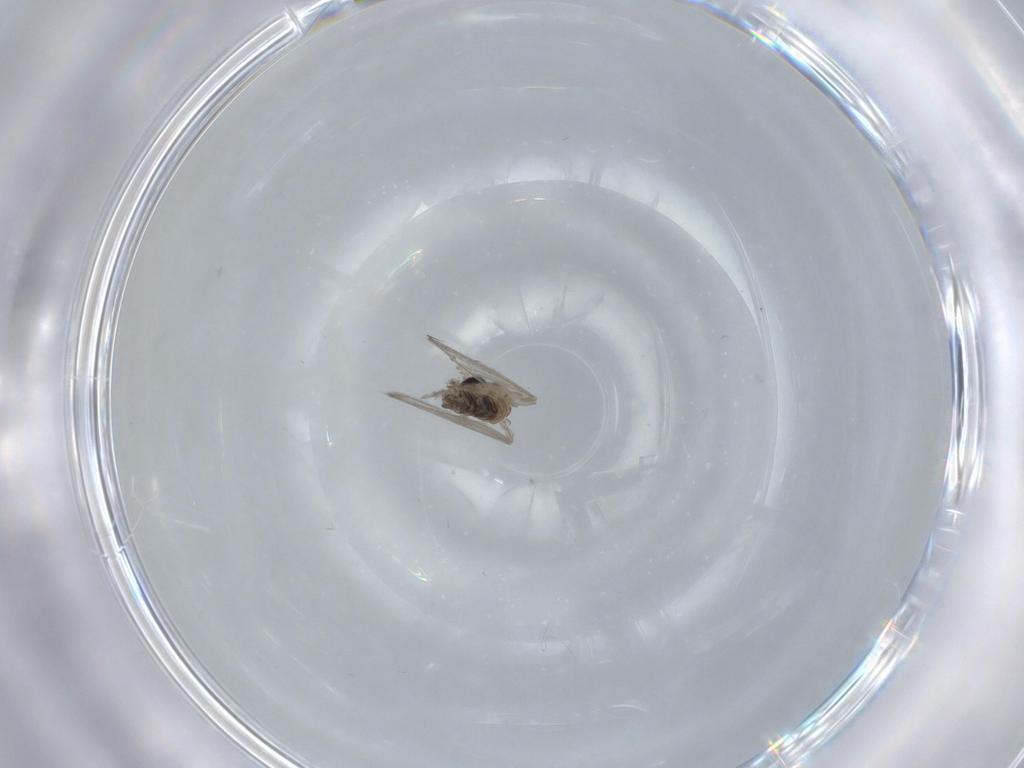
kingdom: Animalia
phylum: Arthropoda
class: Insecta
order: Diptera
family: Psychodidae
